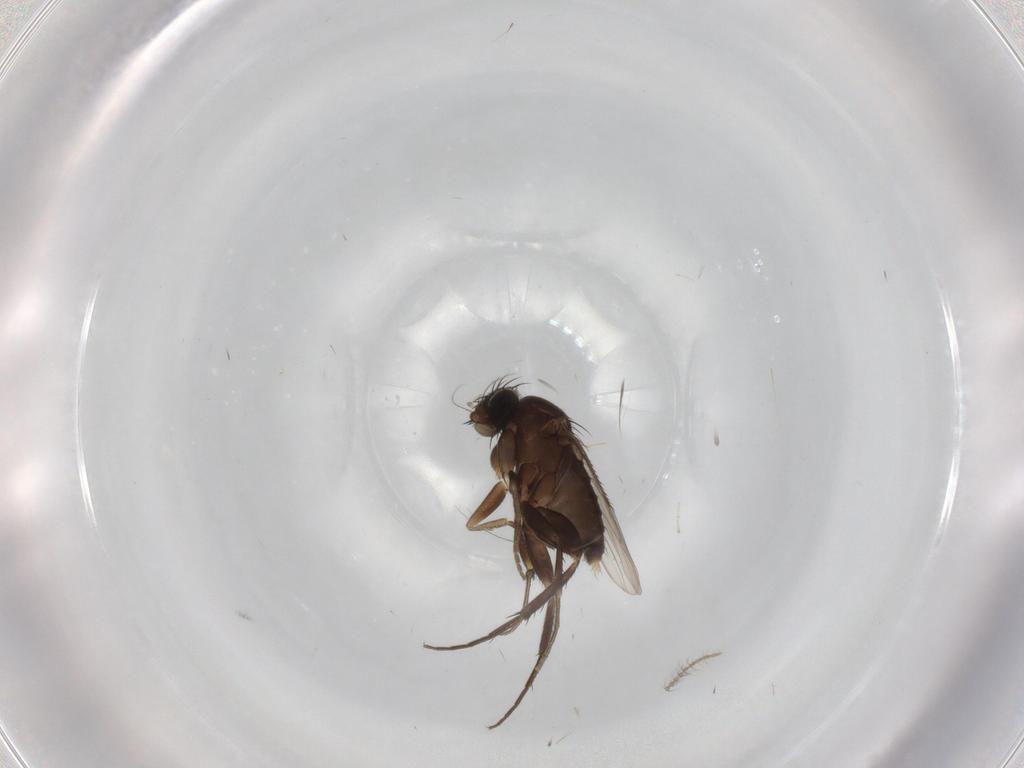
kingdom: Animalia
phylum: Arthropoda
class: Insecta
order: Diptera
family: Phoridae
